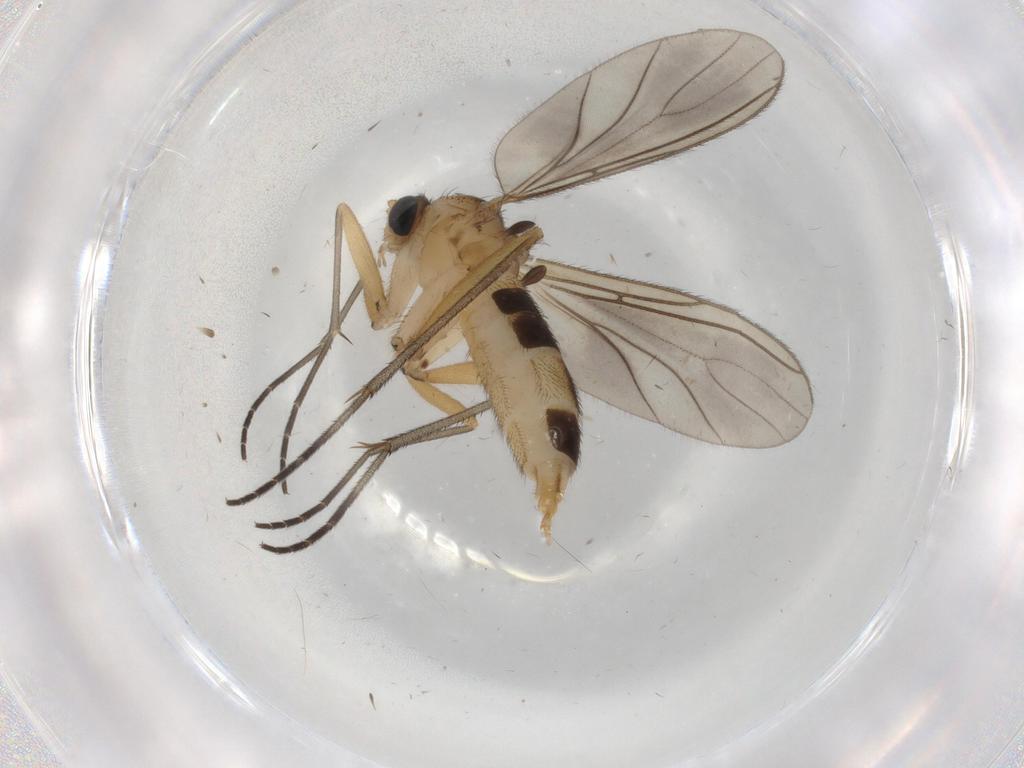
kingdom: Animalia
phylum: Arthropoda
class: Insecta
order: Diptera
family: Sciaridae
